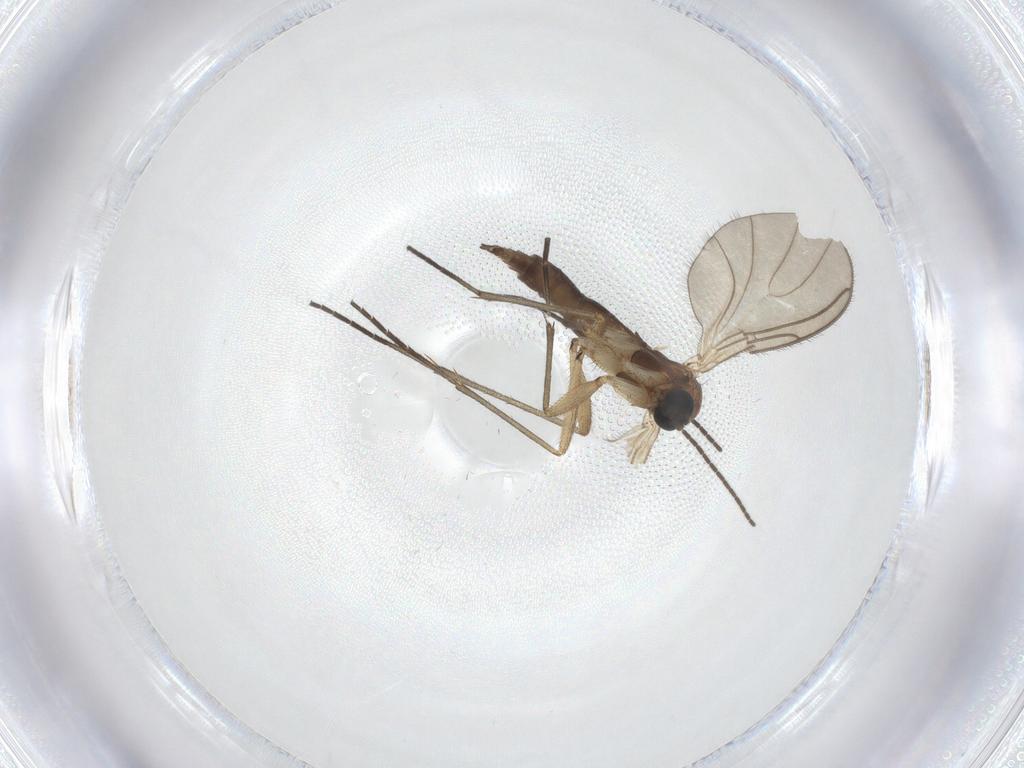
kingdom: Animalia
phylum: Arthropoda
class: Insecta
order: Diptera
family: Sciaridae
